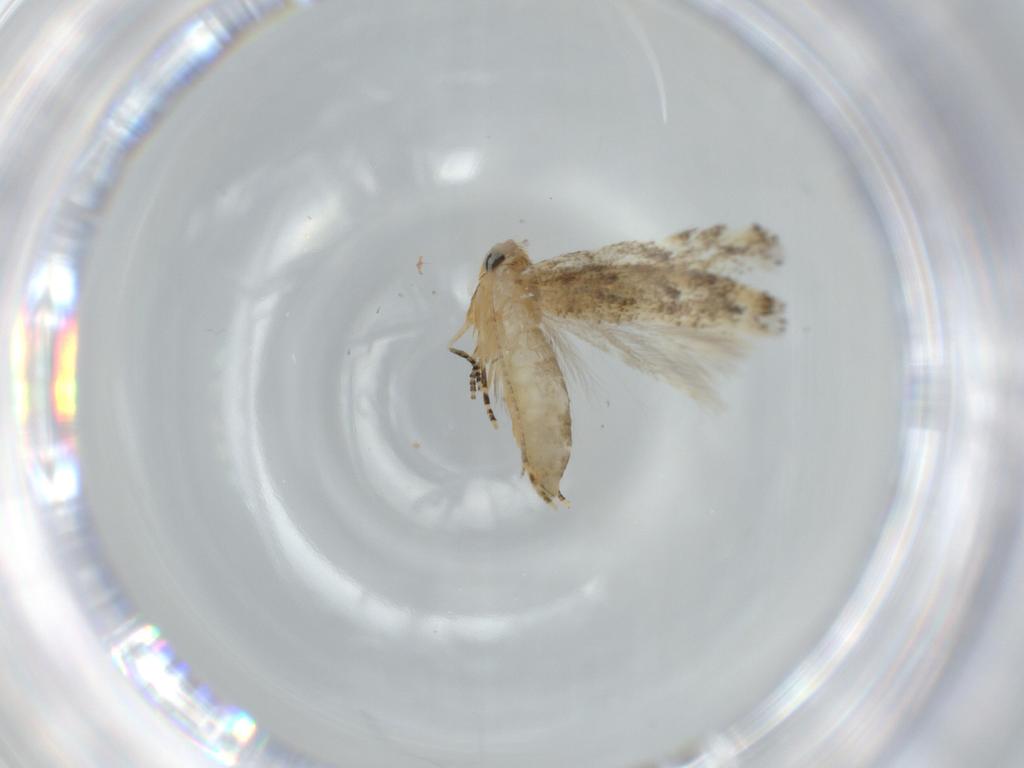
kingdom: Animalia
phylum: Arthropoda
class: Insecta
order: Lepidoptera
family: Bucculatricidae
